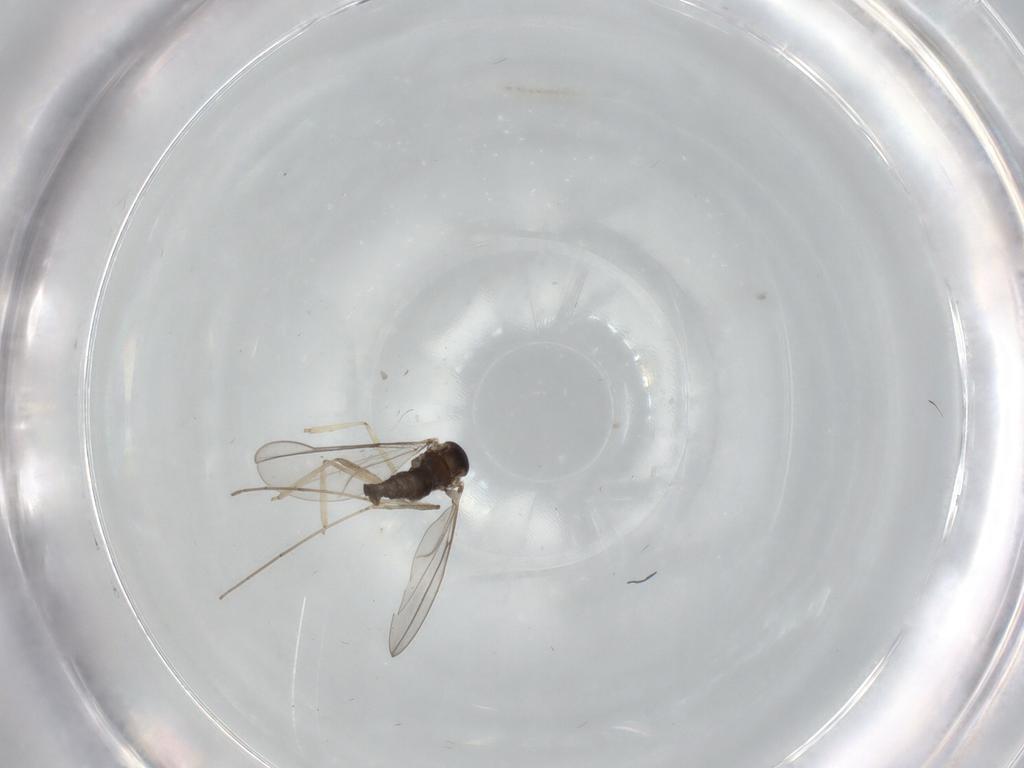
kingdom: Animalia
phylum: Arthropoda
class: Insecta
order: Diptera
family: Cecidomyiidae
